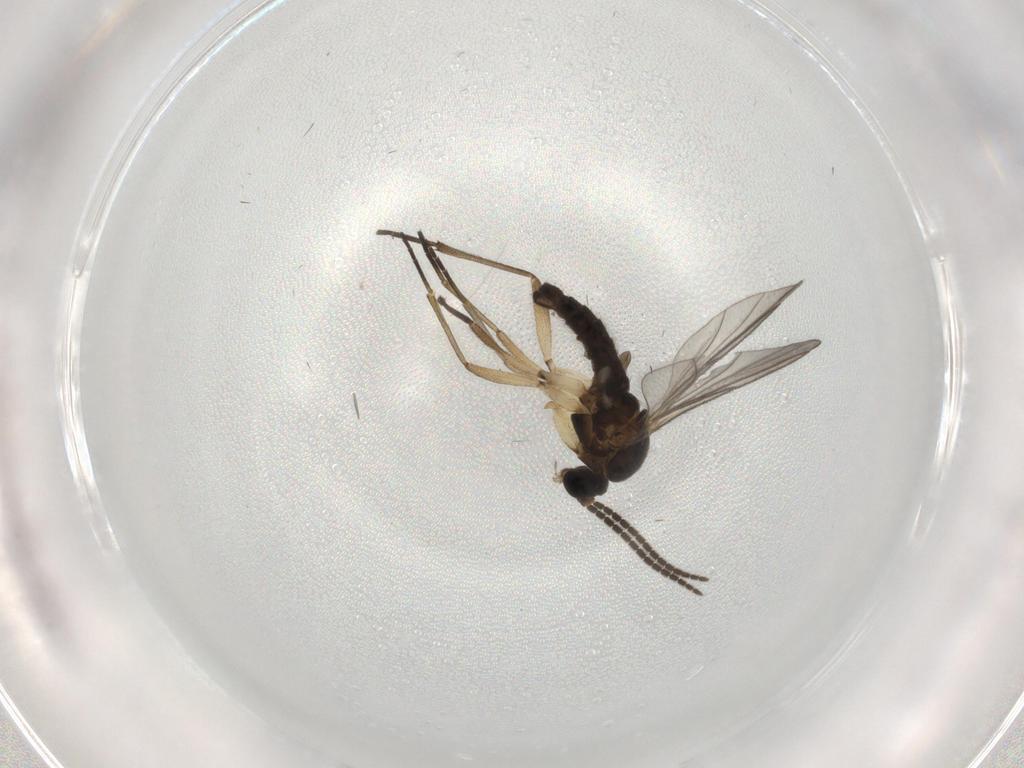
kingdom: Animalia
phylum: Arthropoda
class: Insecta
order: Diptera
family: Sciaridae
